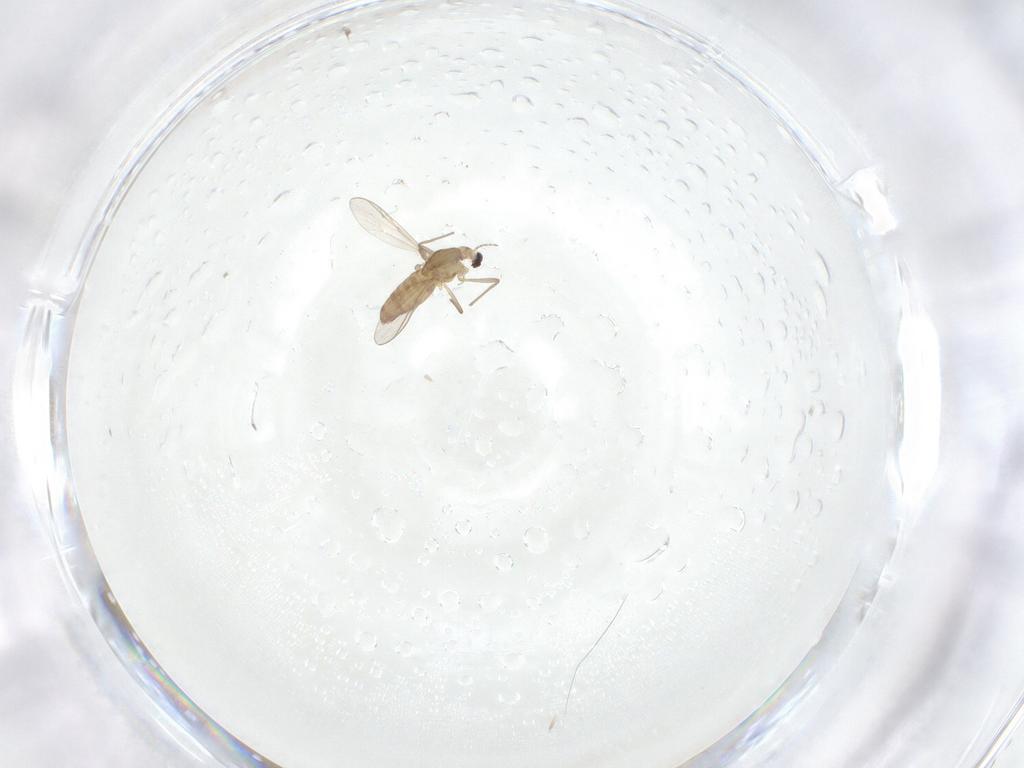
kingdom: Animalia
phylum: Arthropoda
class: Insecta
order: Diptera
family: Chironomidae
